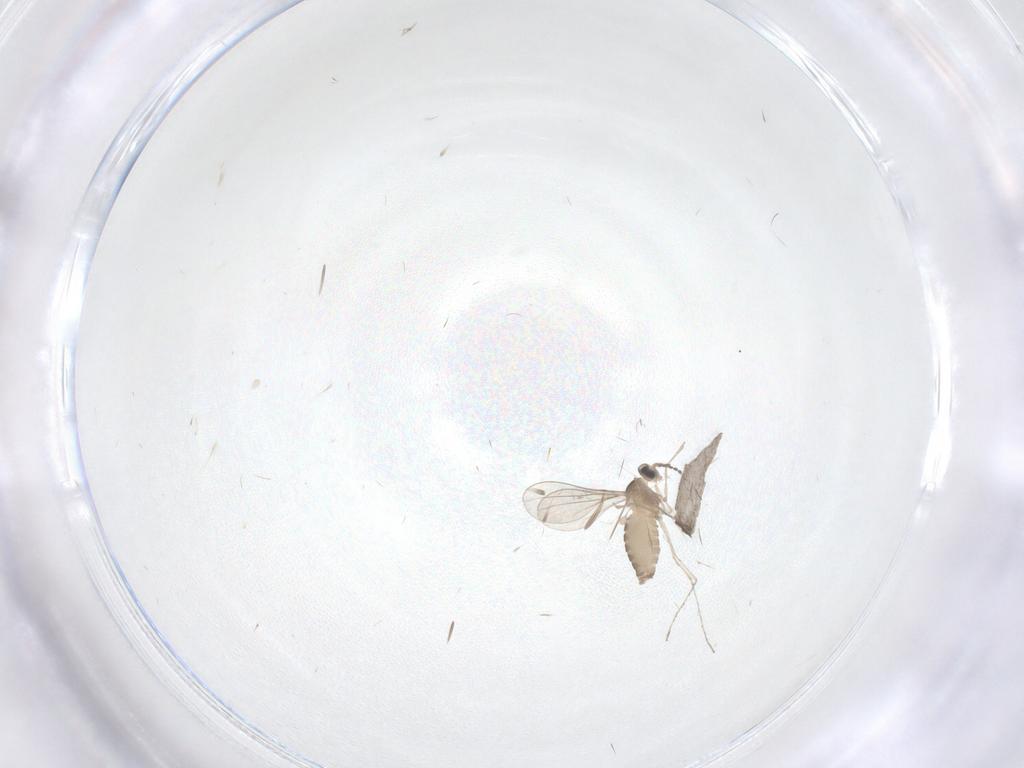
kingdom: Animalia
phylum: Arthropoda
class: Insecta
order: Diptera
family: Cecidomyiidae
